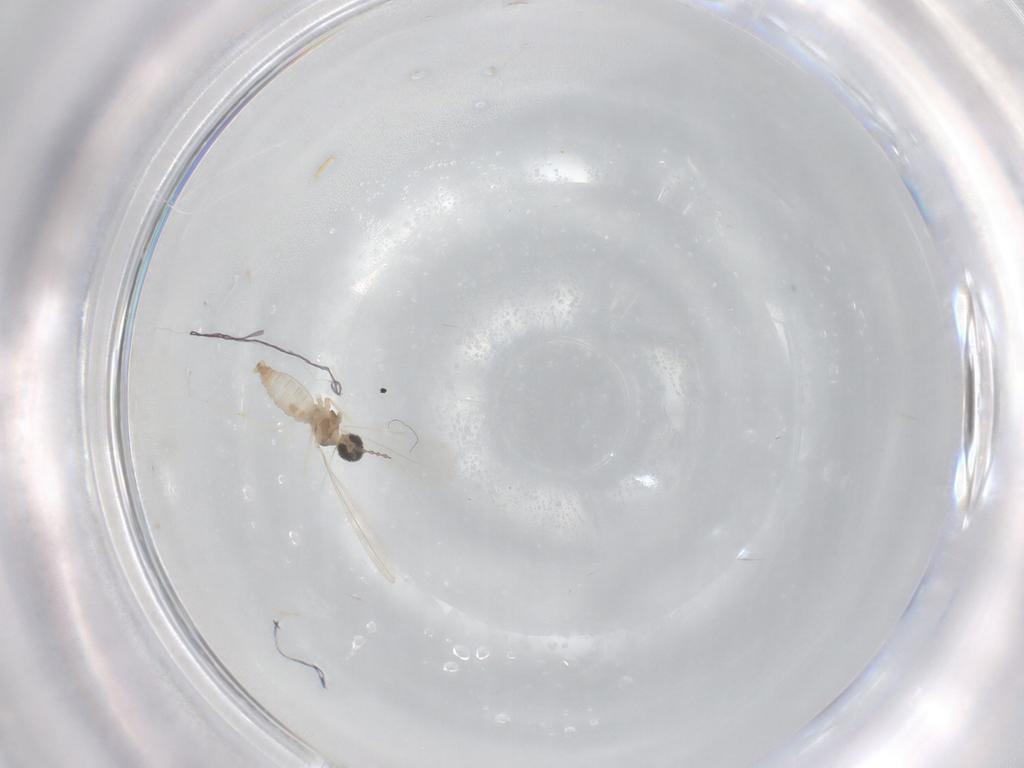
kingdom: Animalia
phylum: Arthropoda
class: Insecta
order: Diptera
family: Cecidomyiidae
